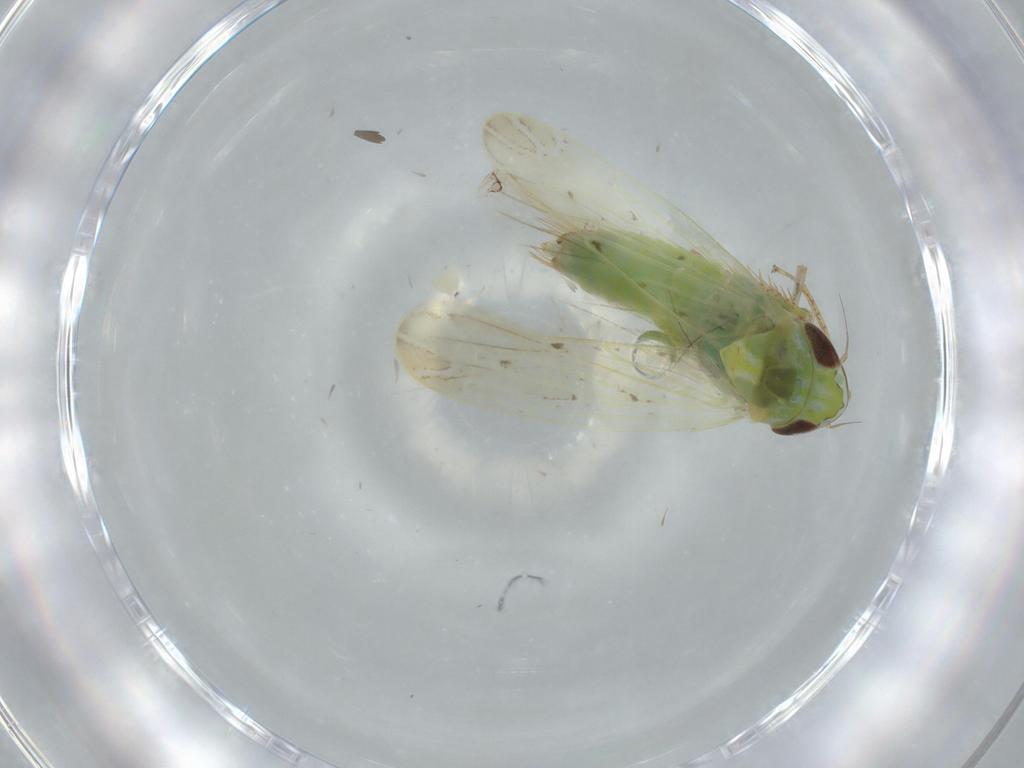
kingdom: Animalia
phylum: Arthropoda
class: Insecta
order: Hemiptera
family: Cicadellidae
